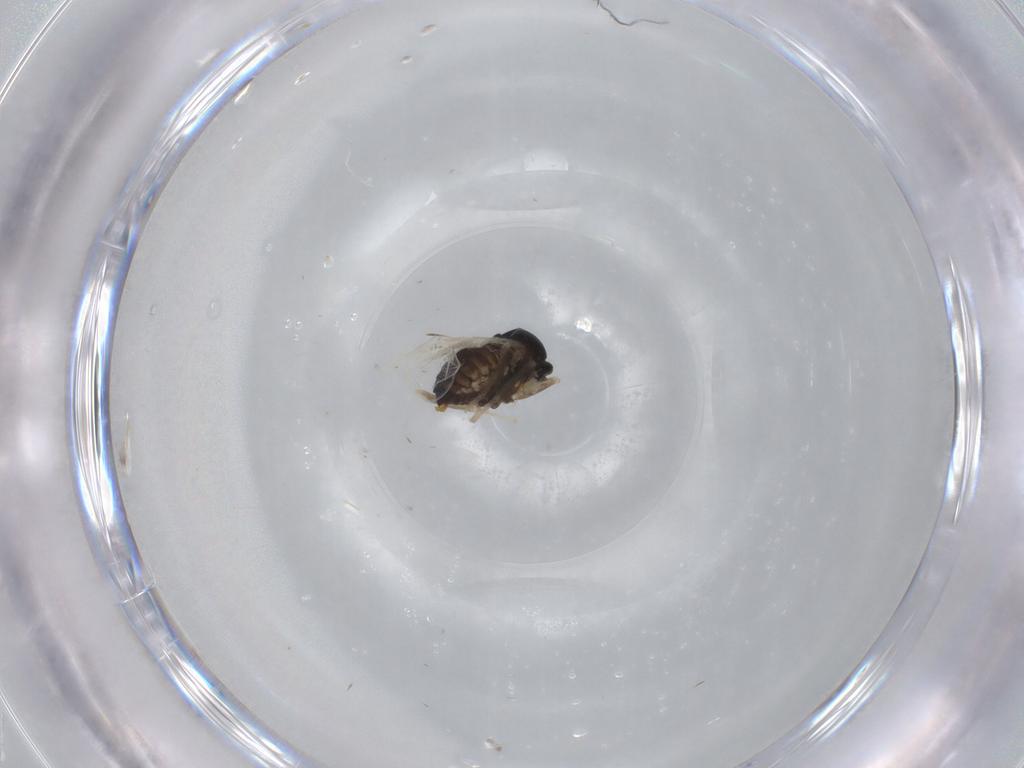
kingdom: Animalia
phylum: Arthropoda
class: Insecta
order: Diptera
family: Cecidomyiidae
